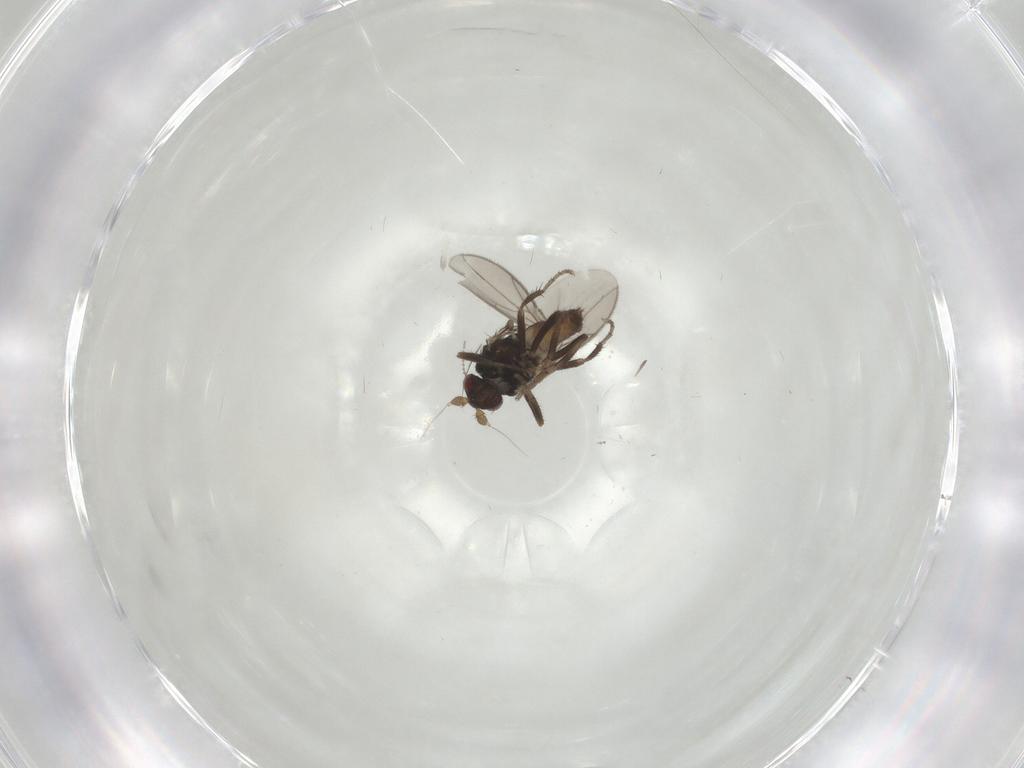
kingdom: Animalia
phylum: Arthropoda
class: Insecta
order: Diptera
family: Cecidomyiidae
